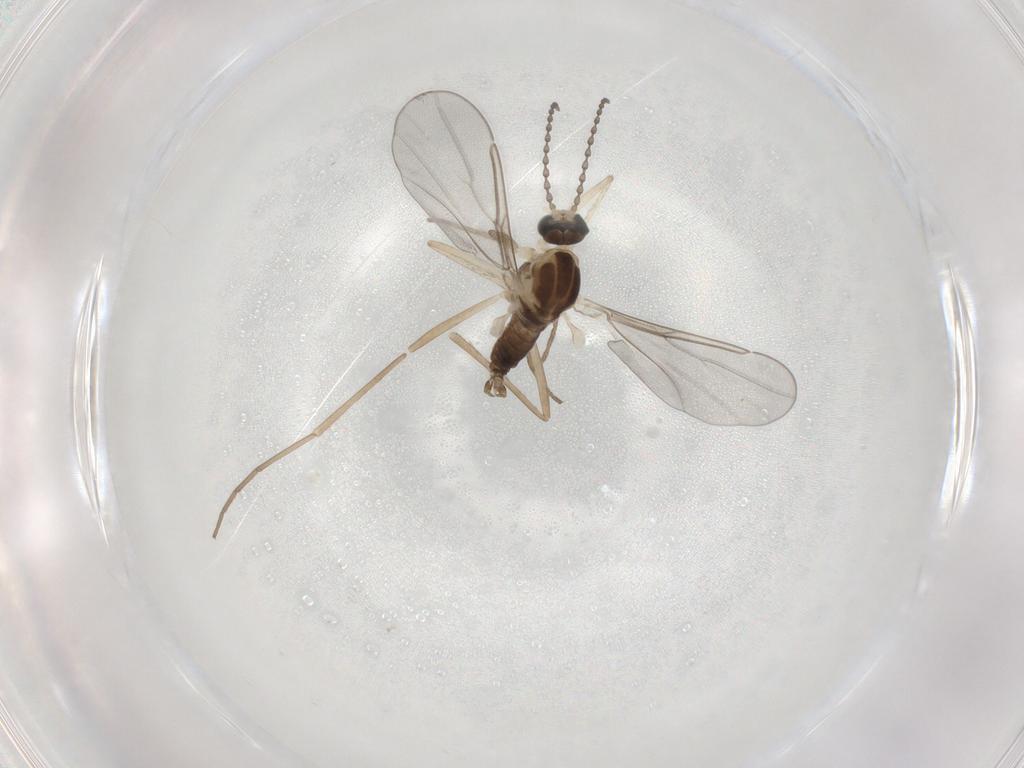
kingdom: Animalia
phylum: Arthropoda
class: Insecta
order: Diptera
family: Cecidomyiidae
